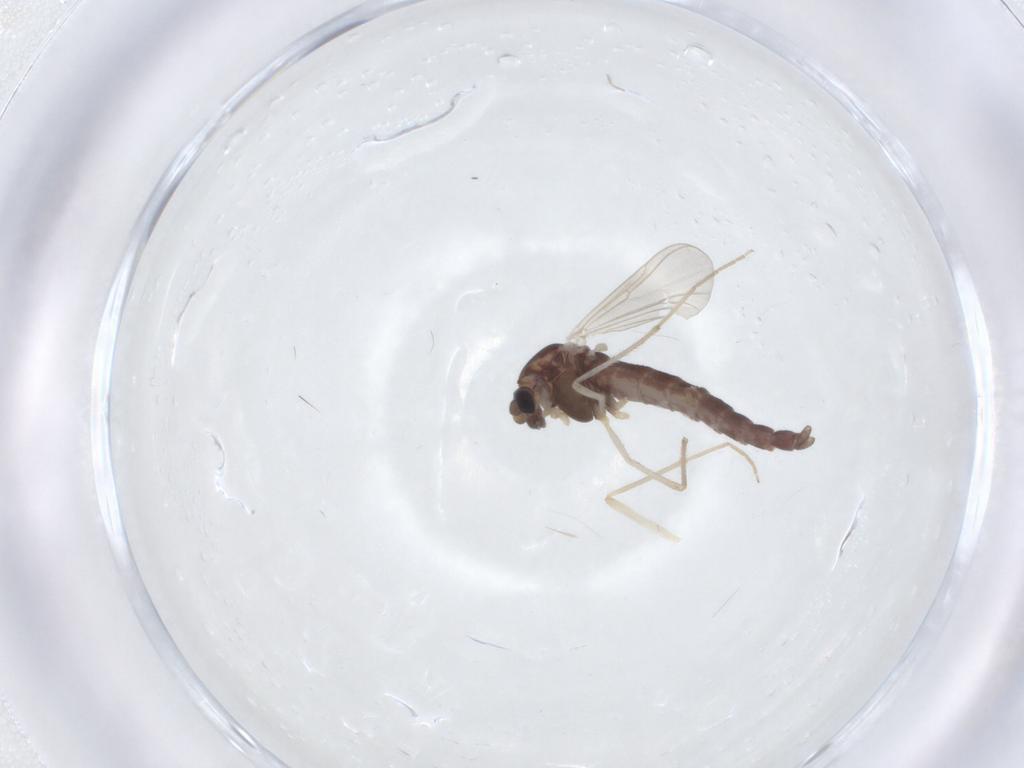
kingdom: Animalia
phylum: Arthropoda
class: Insecta
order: Diptera
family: Chironomidae
